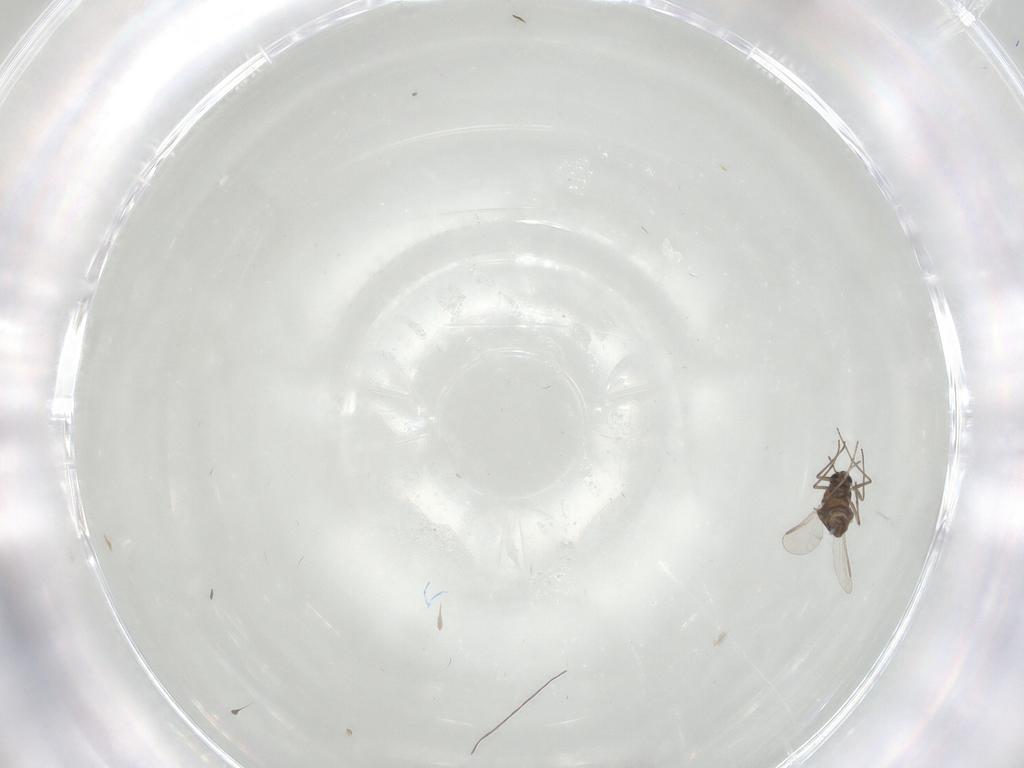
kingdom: Animalia
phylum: Arthropoda
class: Insecta
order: Diptera
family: Chironomidae
